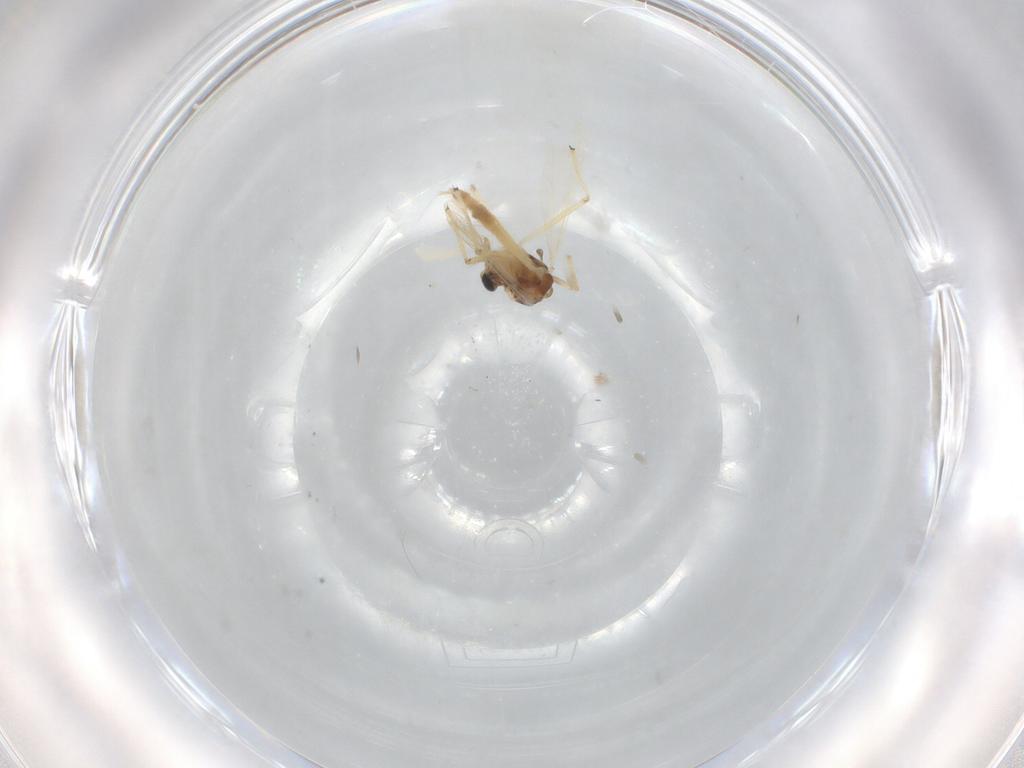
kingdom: Animalia
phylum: Arthropoda
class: Insecta
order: Diptera
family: Chironomidae
